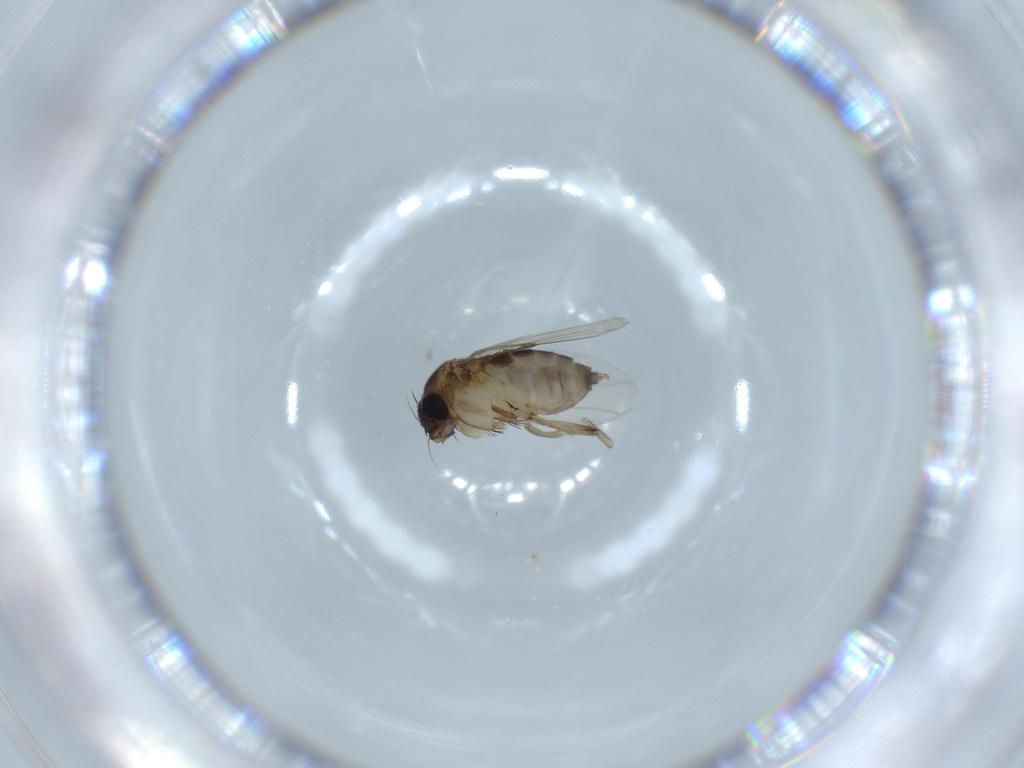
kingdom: Animalia
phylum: Arthropoda
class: Insecta
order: Diptera
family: Phoridae
